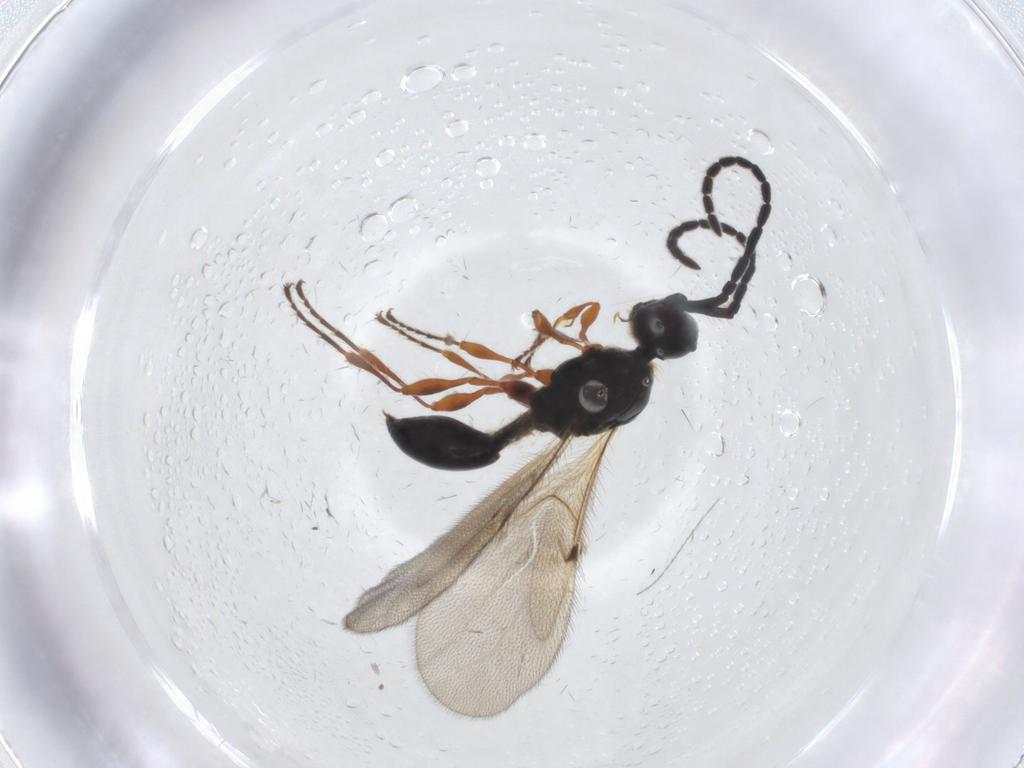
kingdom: Animalia
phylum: Arthropoda
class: Insecta
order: Hymenoptera
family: Diapriidae
